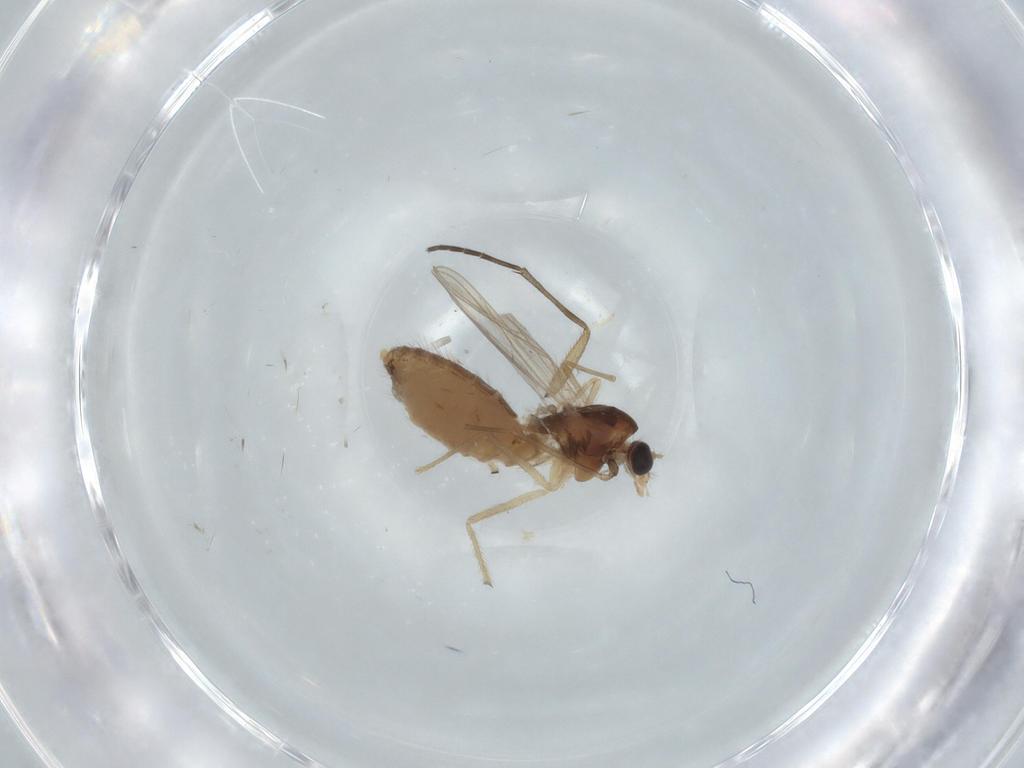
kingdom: Animalia
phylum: Arthropoda
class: Insecta
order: Diptera
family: Chironomidae
